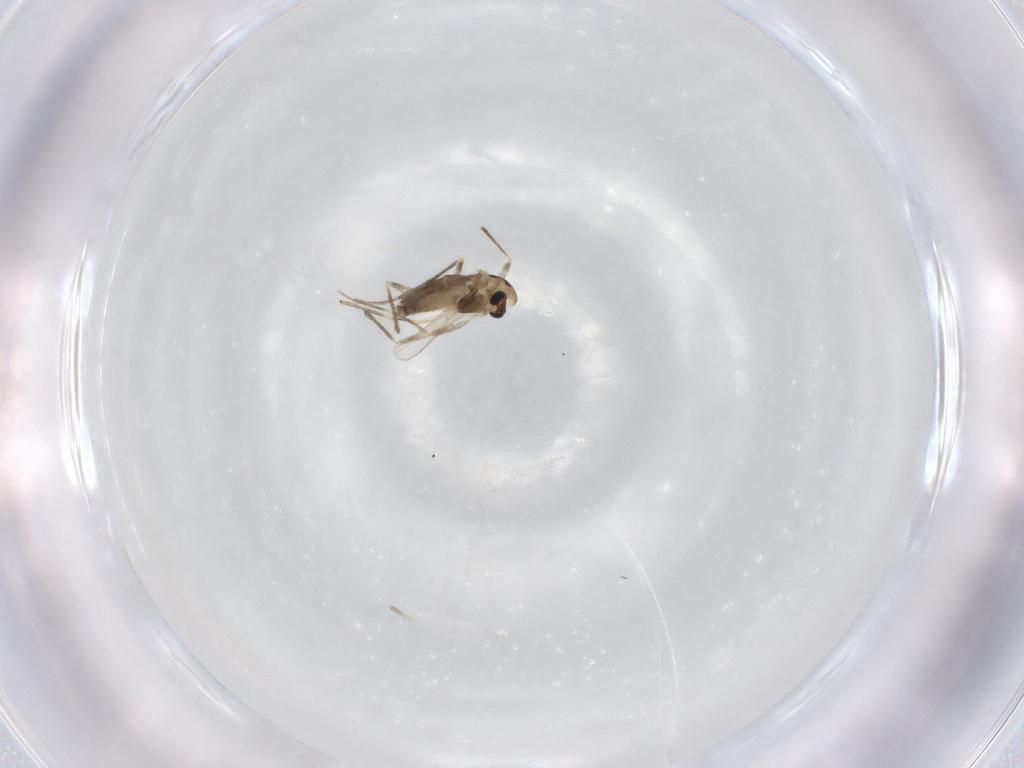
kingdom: Animalia
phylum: Arthropoda
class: Insecta
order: Diptera
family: Chironomidae
